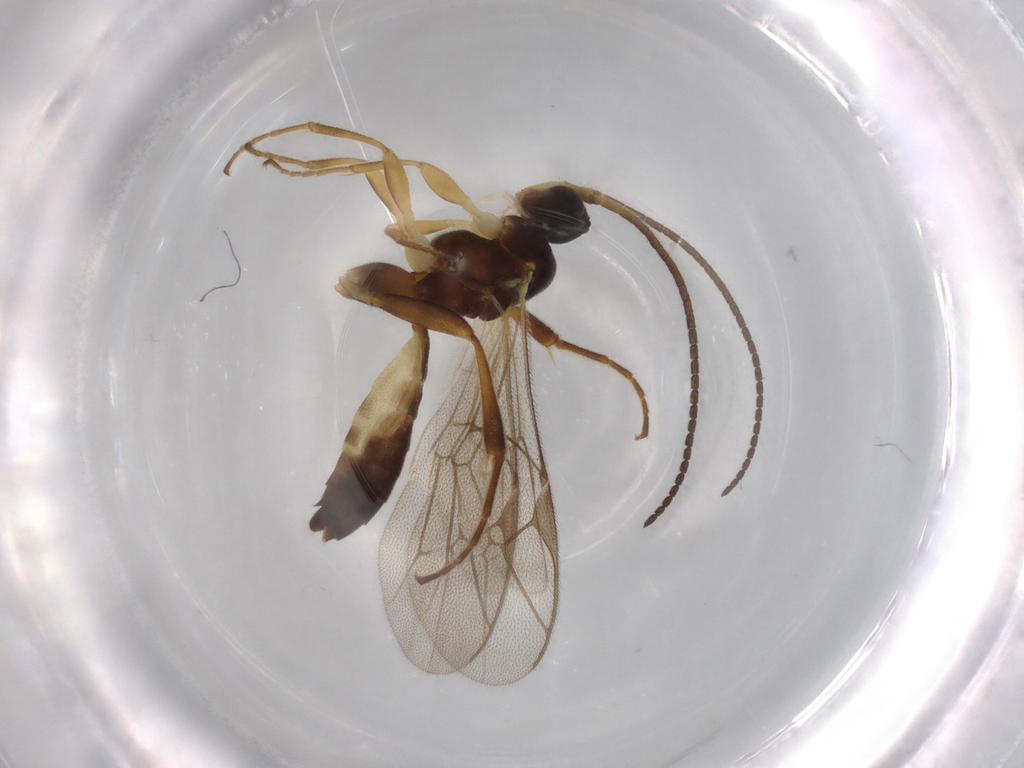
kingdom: Animalia
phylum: Arthropoda
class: Insecta
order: Hymenoptera
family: Ichneumonidae
